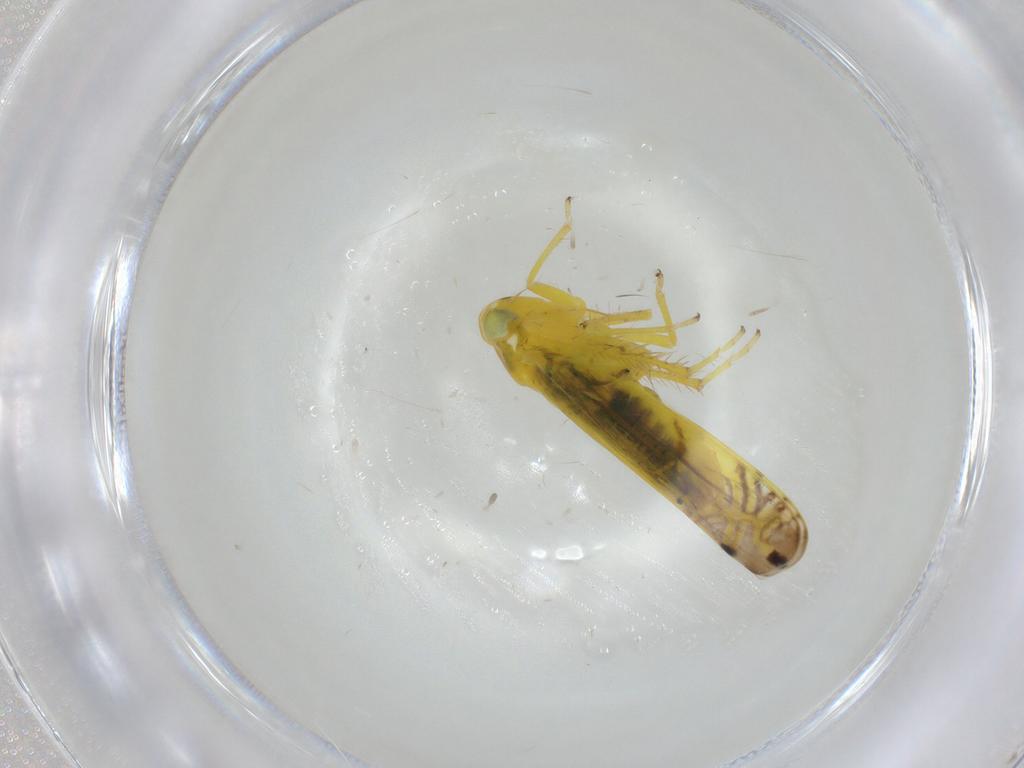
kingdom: Animalia
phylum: Arthropoda
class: Insecta
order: Hemiptera
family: Cicadellidae
